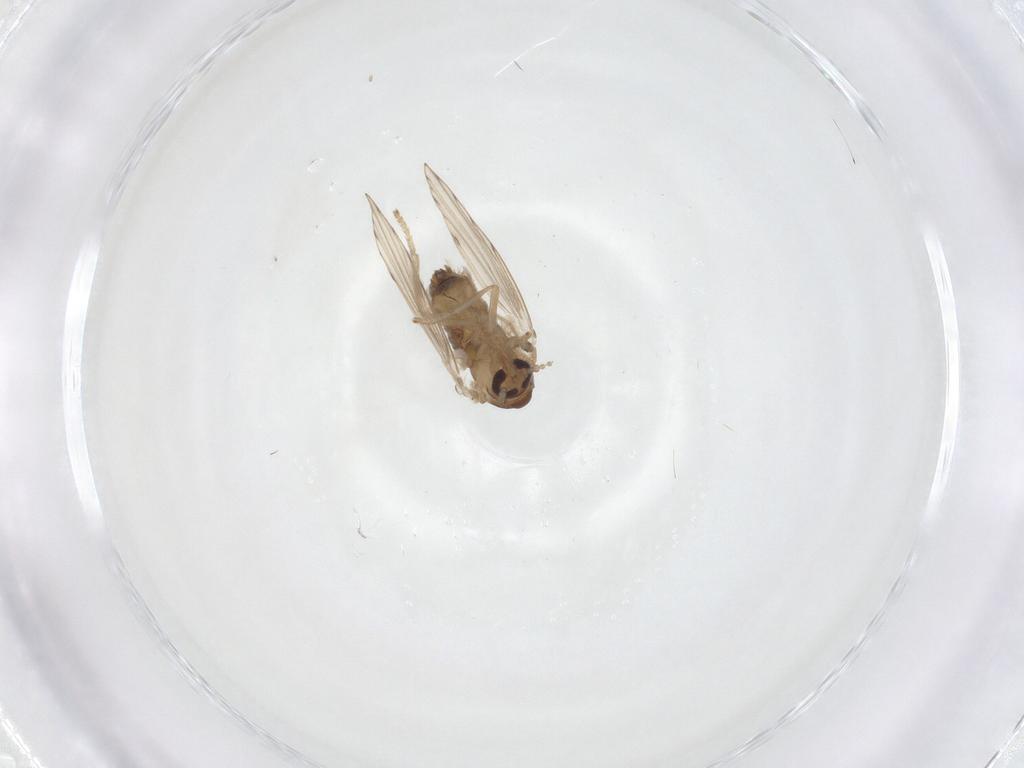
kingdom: Animalia
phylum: Arthropoda
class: Insecta
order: Diptera
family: Psychodidae
